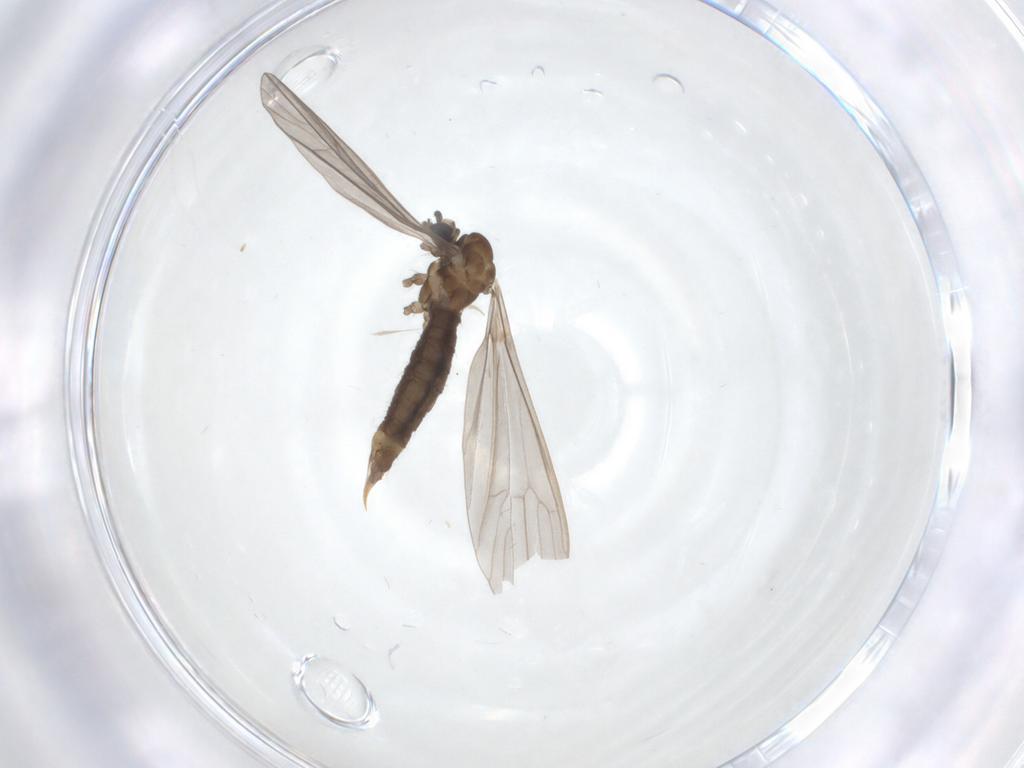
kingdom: Animalia
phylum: Arthropoda
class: Insecta
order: Diptera
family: Limoniidae
